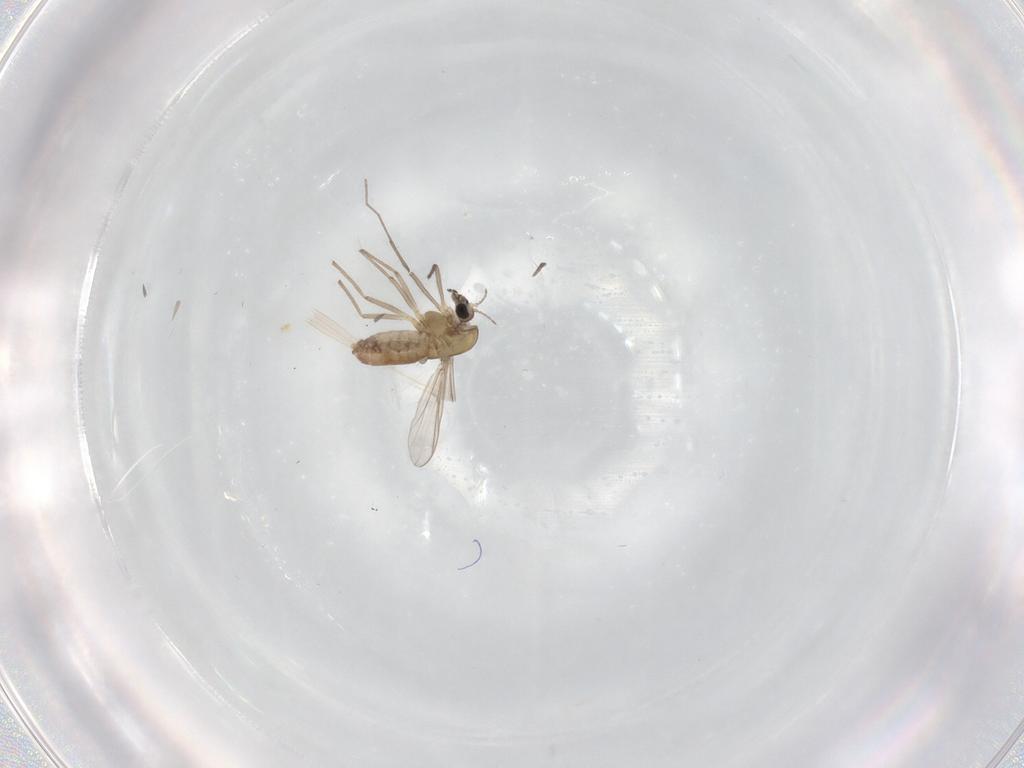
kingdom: Animalia
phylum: Arthropoda
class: Insecta
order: Diptera
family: Chironomidae
